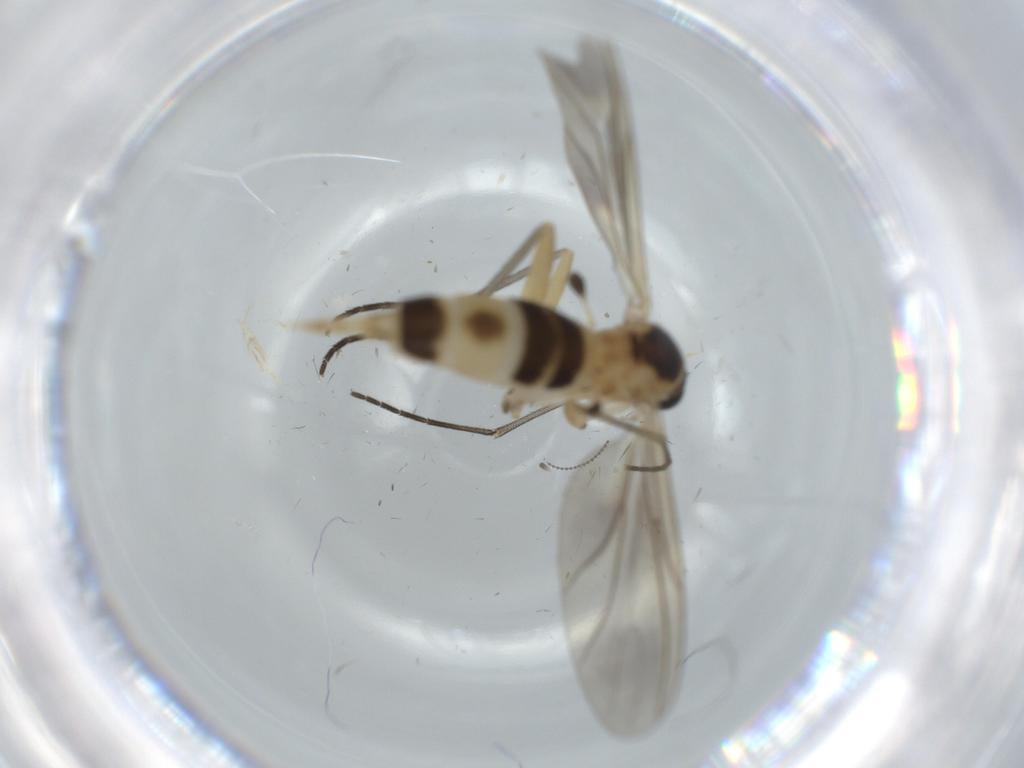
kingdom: Animalia
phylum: Arthropoda
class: Insecta
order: Diptera
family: Sciaridae
